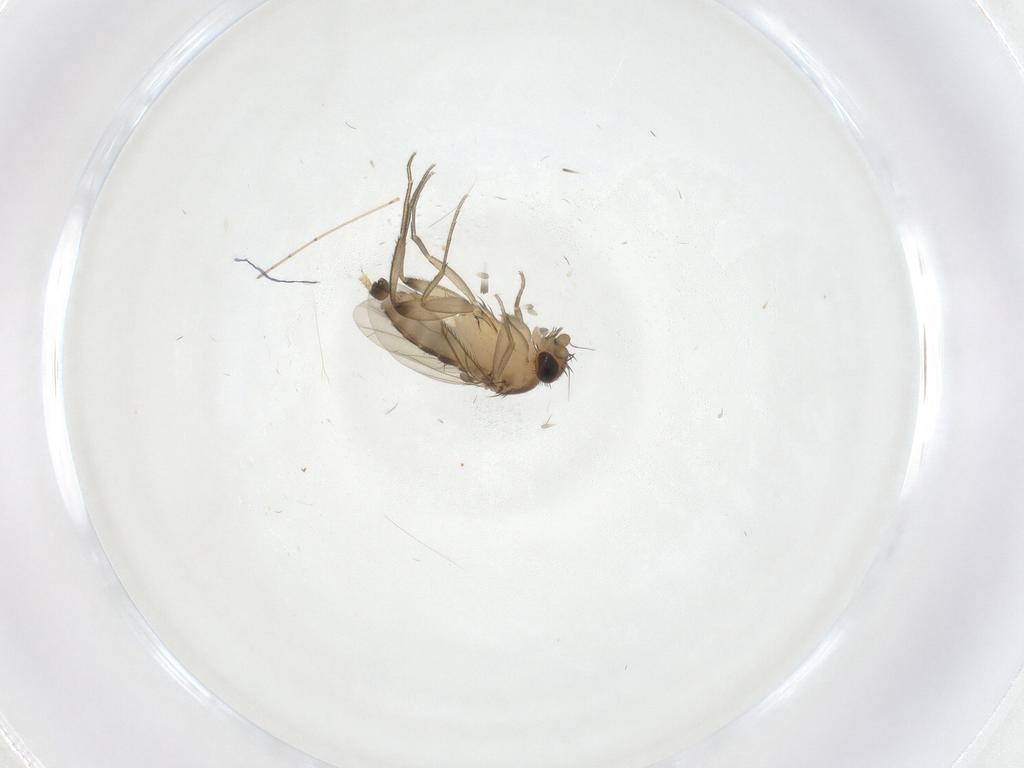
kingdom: Animalia
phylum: Arthropoda
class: Insecta
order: Diptera
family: Cecidomyiidae
